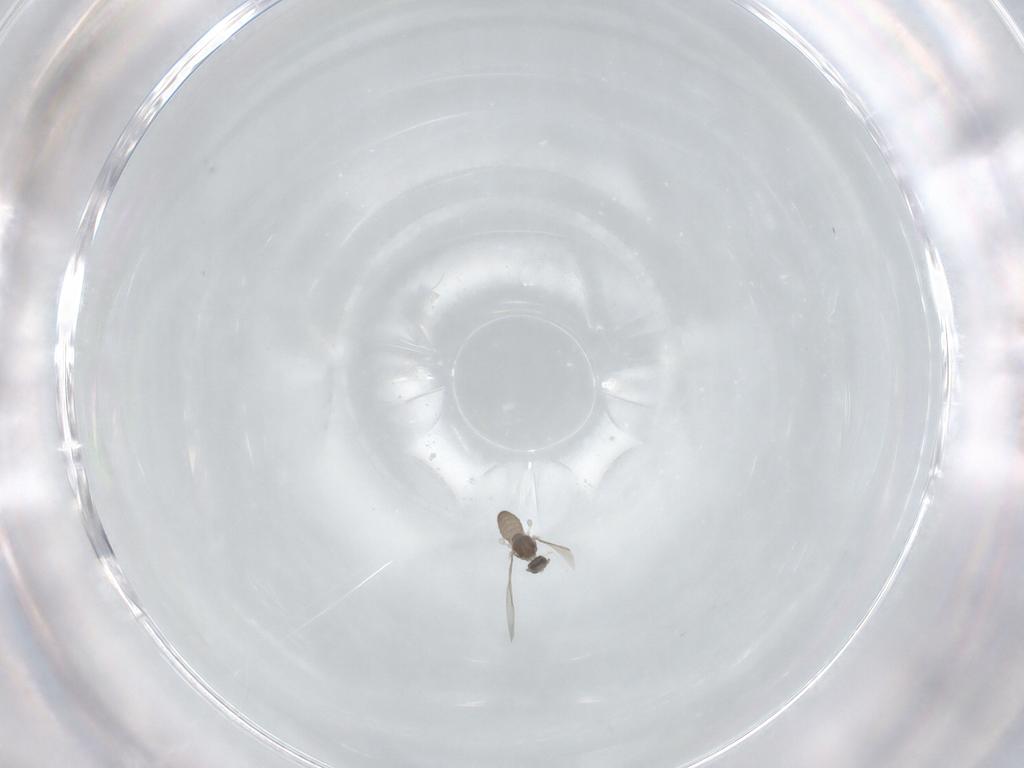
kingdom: Animalia
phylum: Arthropoda
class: Insecta
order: Diptera
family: Cecidomyiidae
